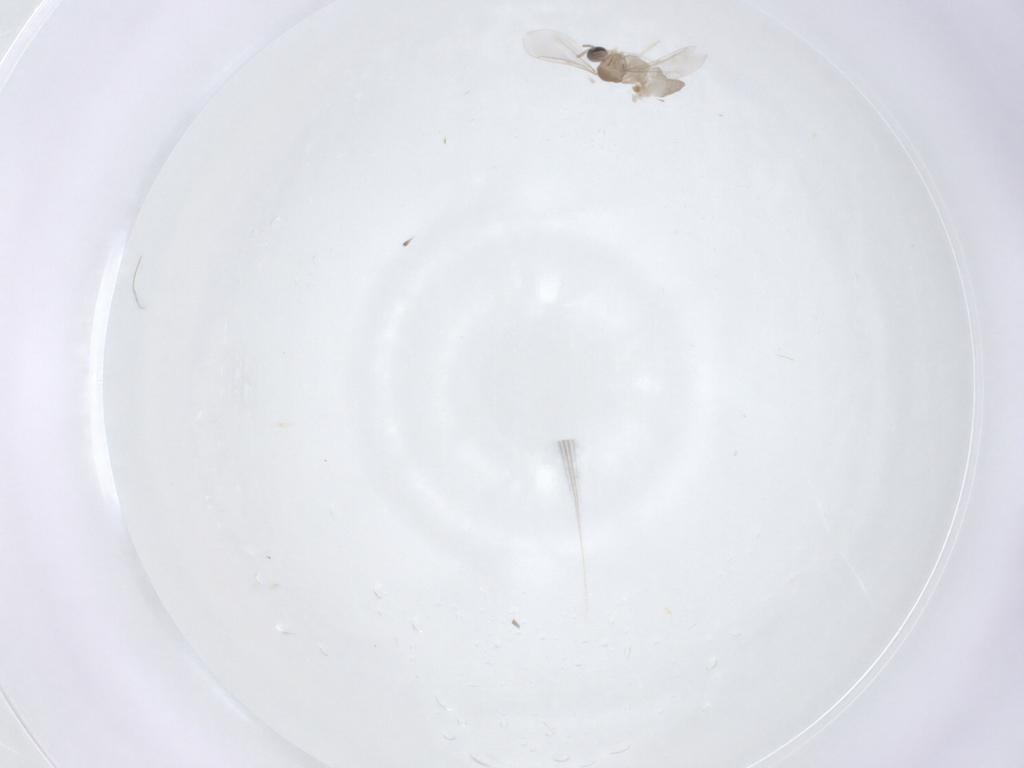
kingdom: Animalia
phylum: Arthropoda
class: Insecta
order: Diptera
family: Cecidomyiidae
